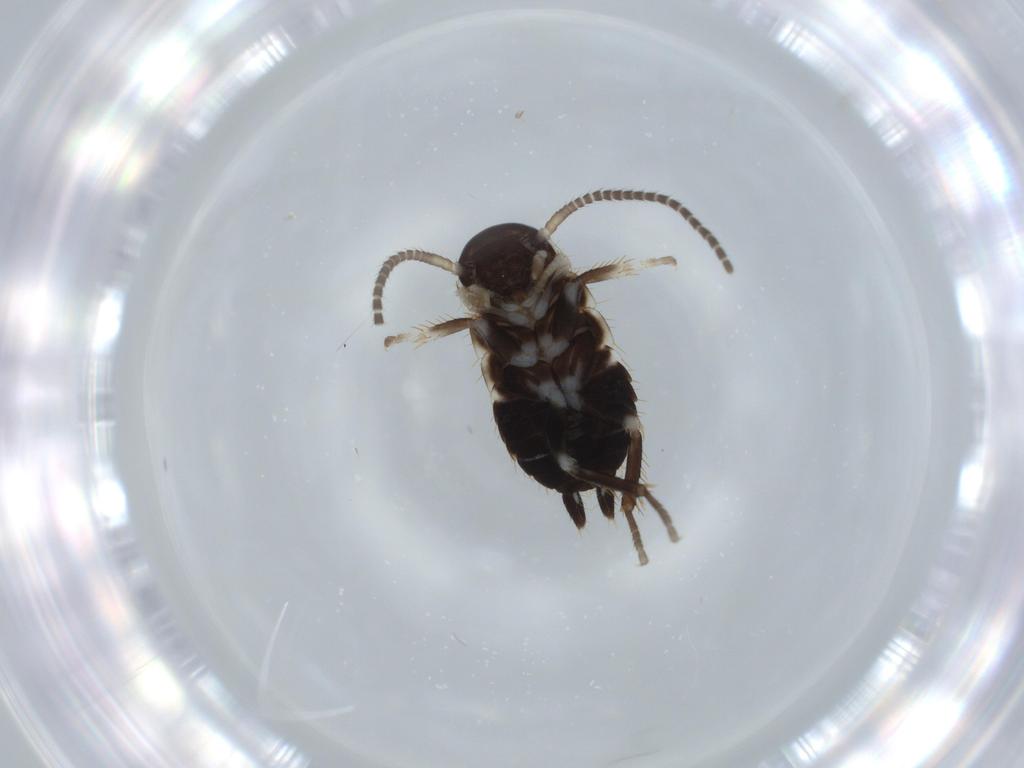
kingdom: Animalia
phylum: Arthropoda
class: Insecta
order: Blattodea
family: Ectobiidae
